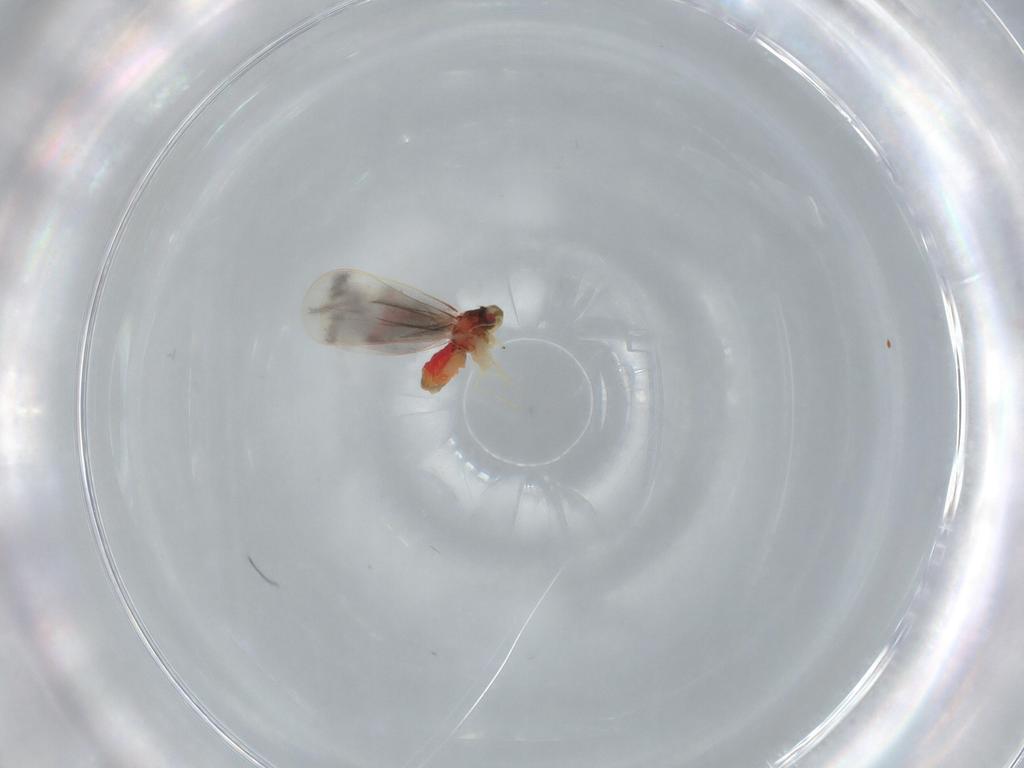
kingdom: Animalia
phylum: Arthropoda
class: Insecta
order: Hemiptera
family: Aleyrodidae
